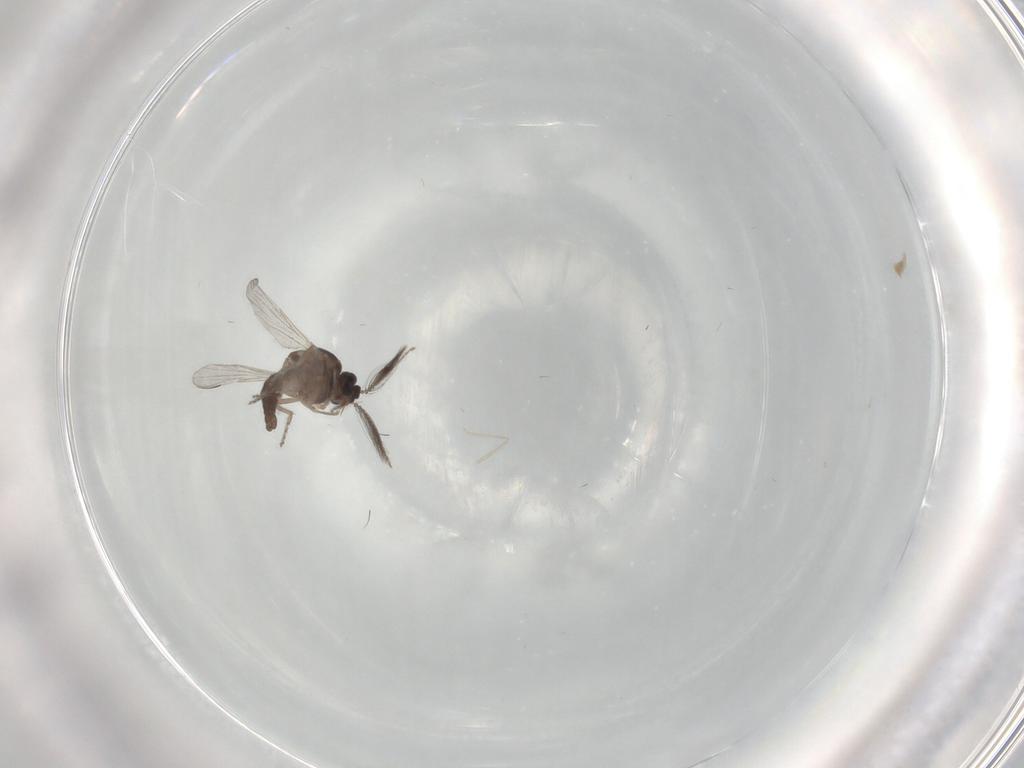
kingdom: Animalia
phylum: Arthropoda
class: Insecta
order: Diptera
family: Ceratopogonidae
